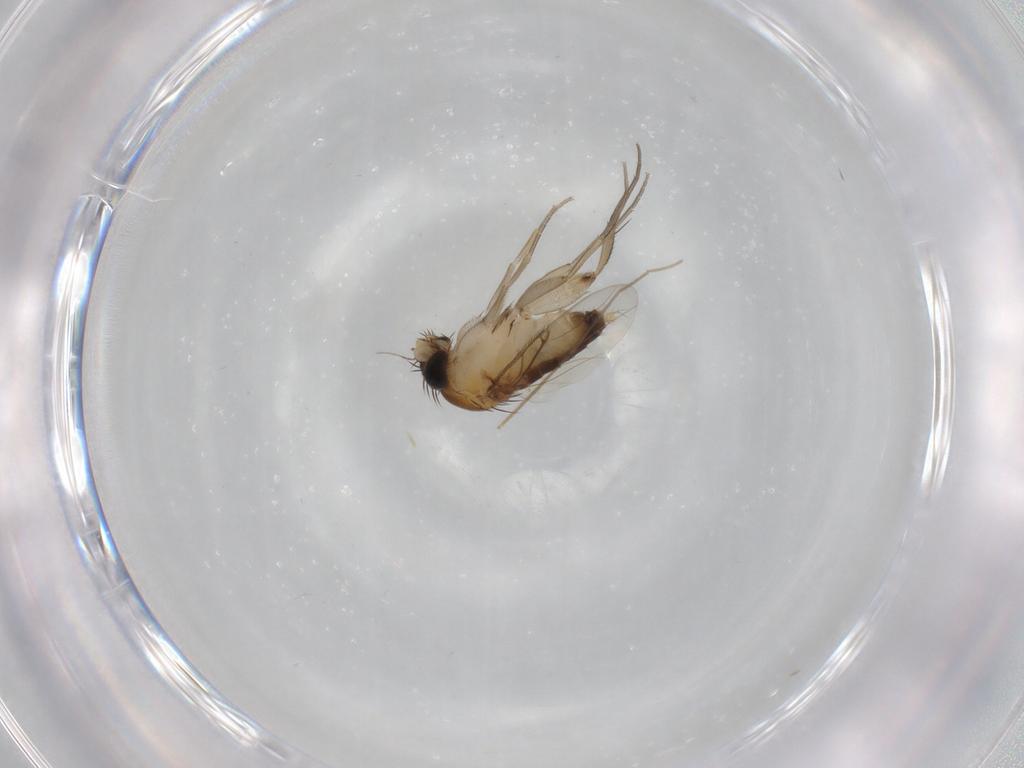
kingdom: Animalia
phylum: Arthropoda
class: Insecta
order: Diptera
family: Phoridae
